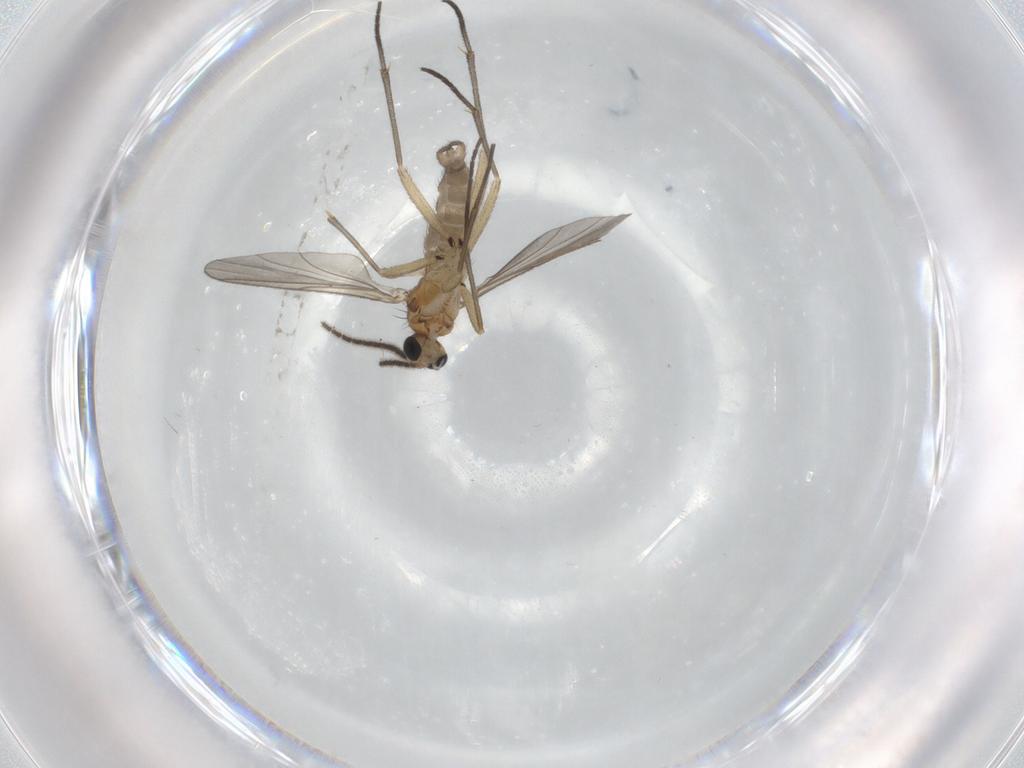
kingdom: Animalia
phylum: Arthropoda
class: Insecta
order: Diptera
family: Sciaridae
